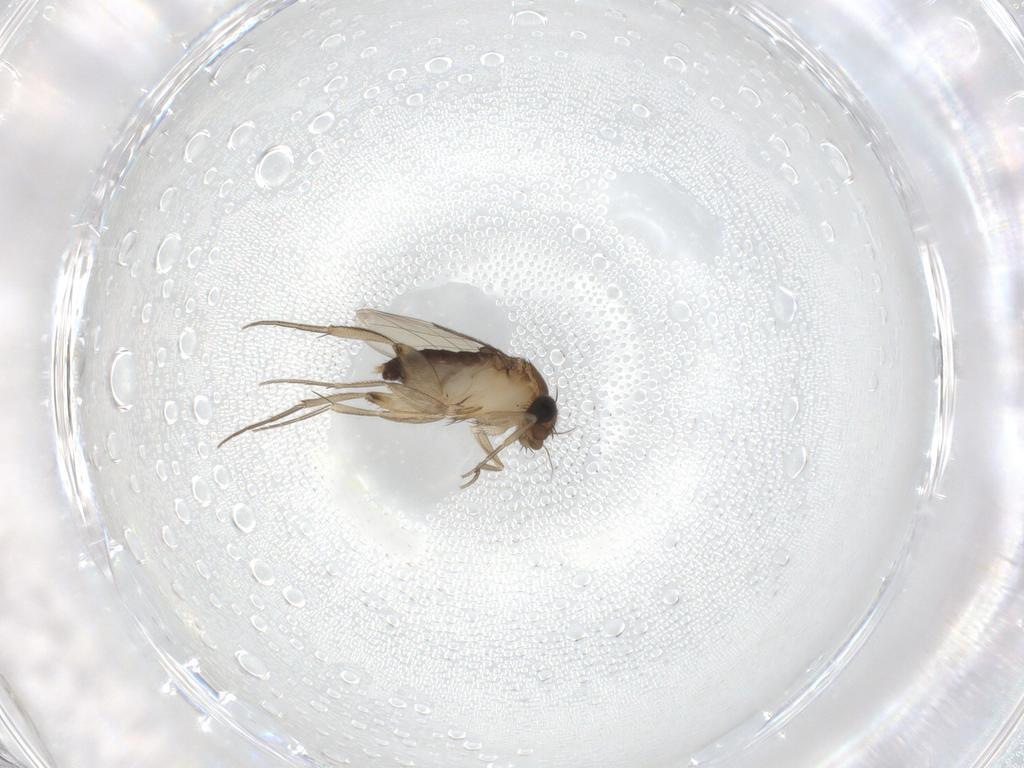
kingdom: Animalia
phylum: Arthropoda
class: Insecta
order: Diptera
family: Phoridae
